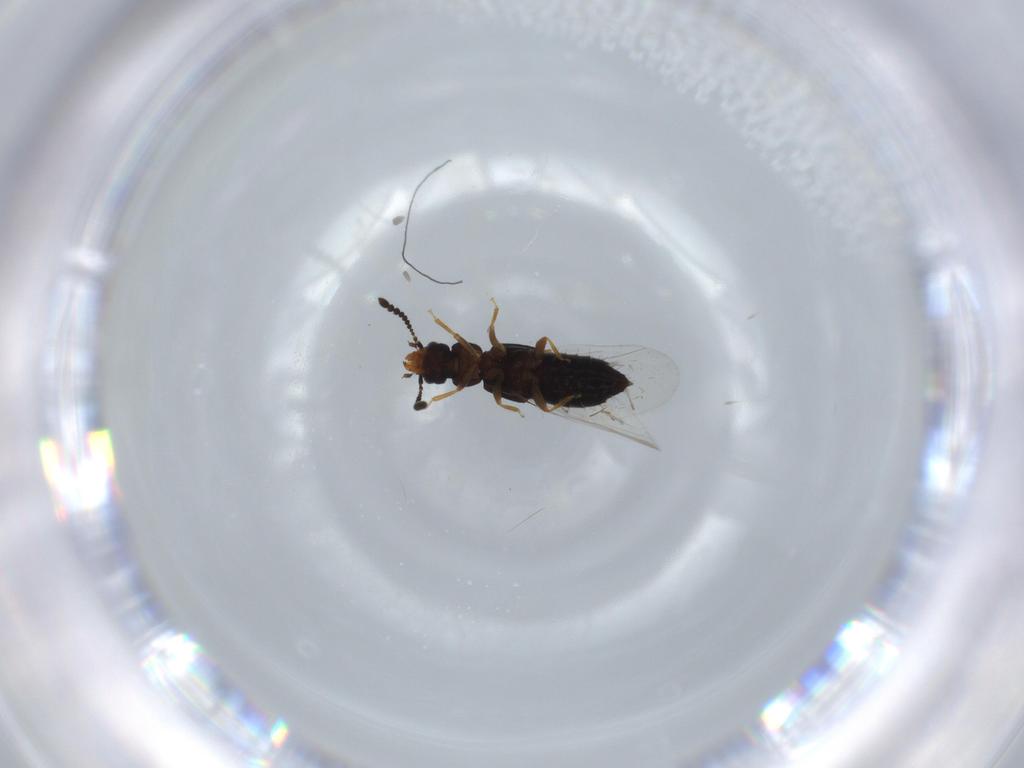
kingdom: Animalia
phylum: Arthropoda
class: Insecta
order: Coleoptera
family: Staphylinidae
